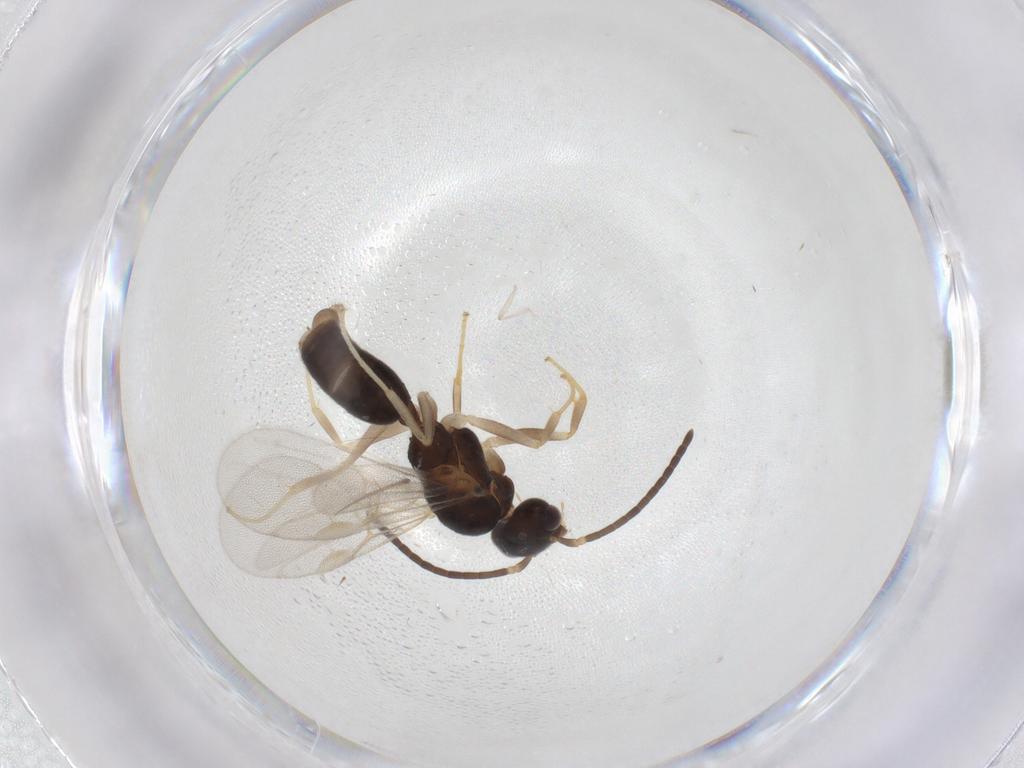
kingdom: Animalia
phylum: Arthropoda
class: Insecta
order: Hymenoptera
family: Formicidae
